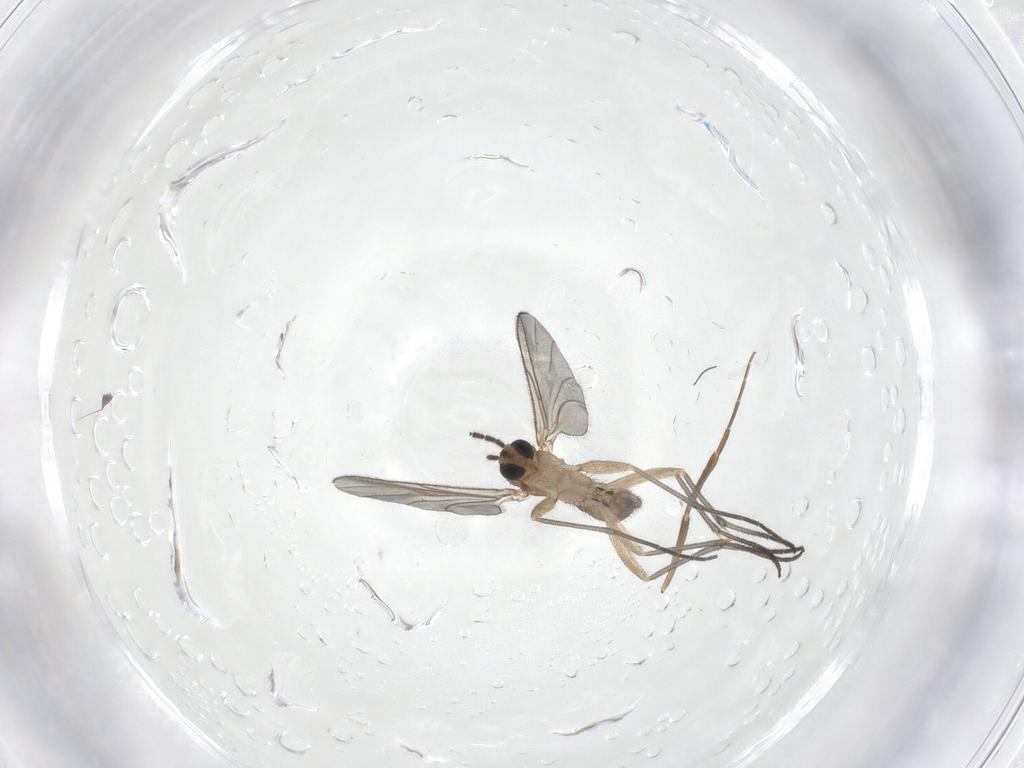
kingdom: Animalia
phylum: Arthropoda
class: Insecta
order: Diptera
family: Sciaridae
